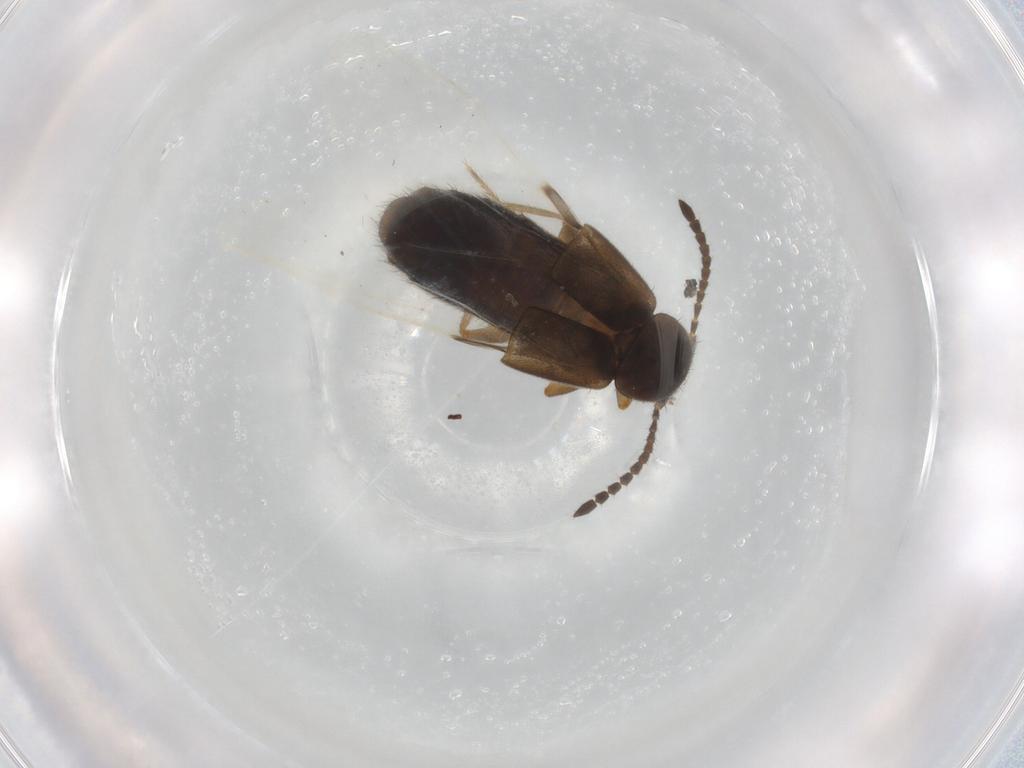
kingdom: Animalia
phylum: Arthropoda
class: Insecta
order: Coleoptera
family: Staphylinidae
